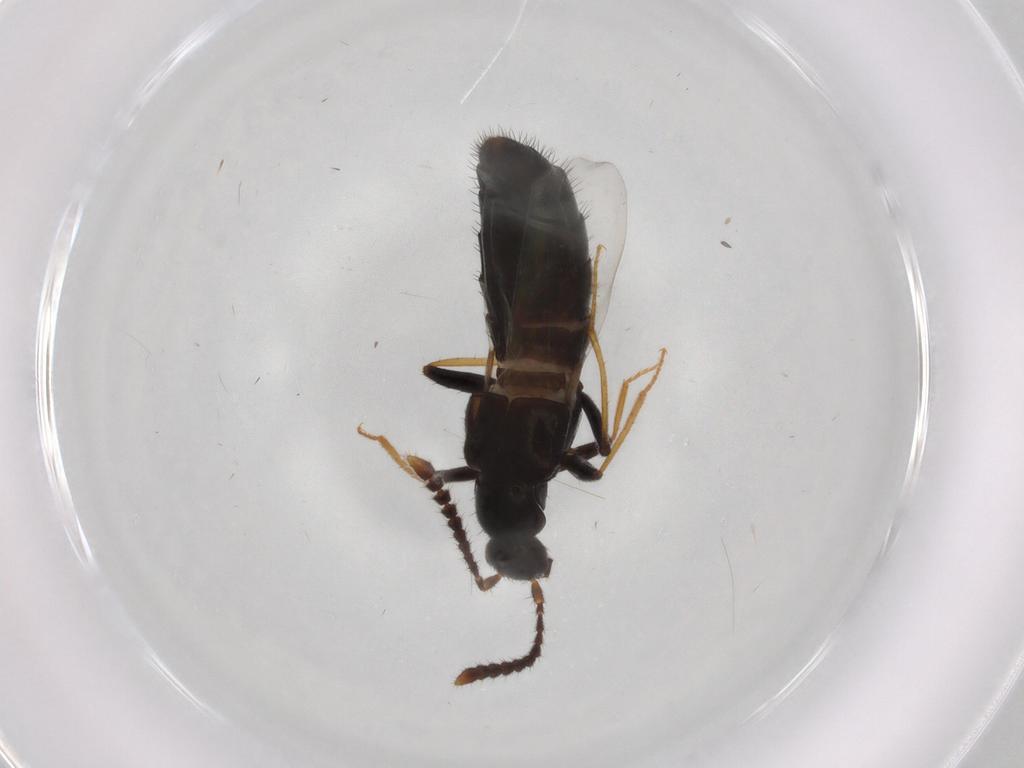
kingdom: Animalia
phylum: Arthropoda
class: Insecta
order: Coleoptera
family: Staphylinidae
